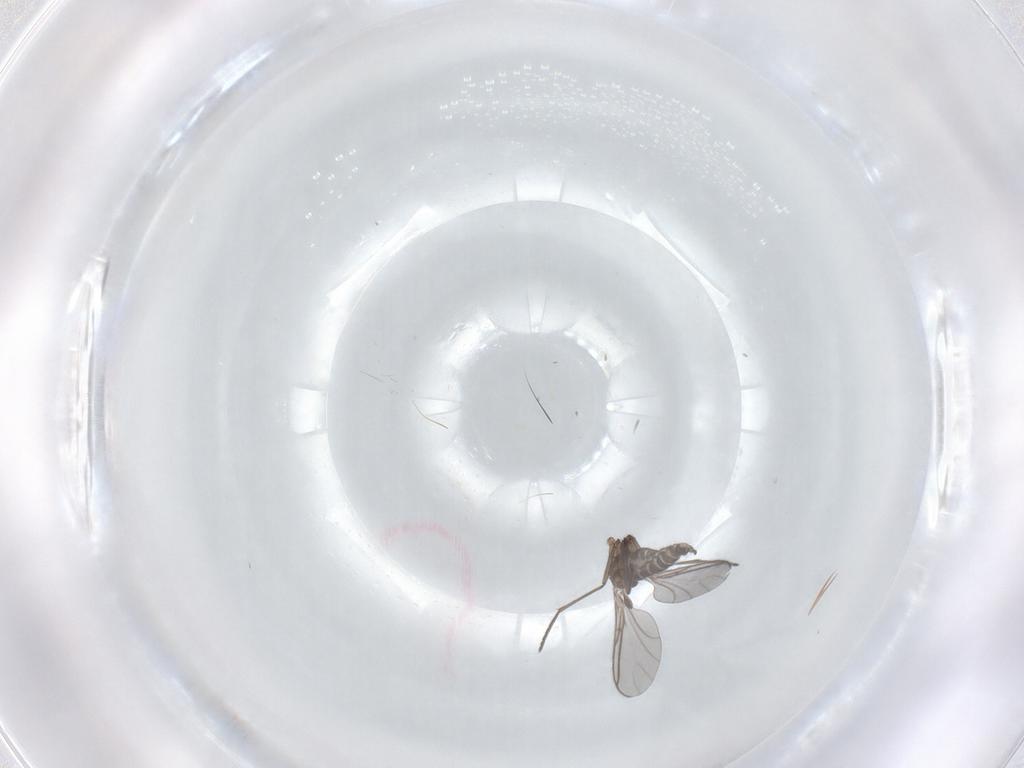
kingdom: Animalia
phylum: Arthropoda
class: Insecta
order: Diptera
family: Sciaridae
